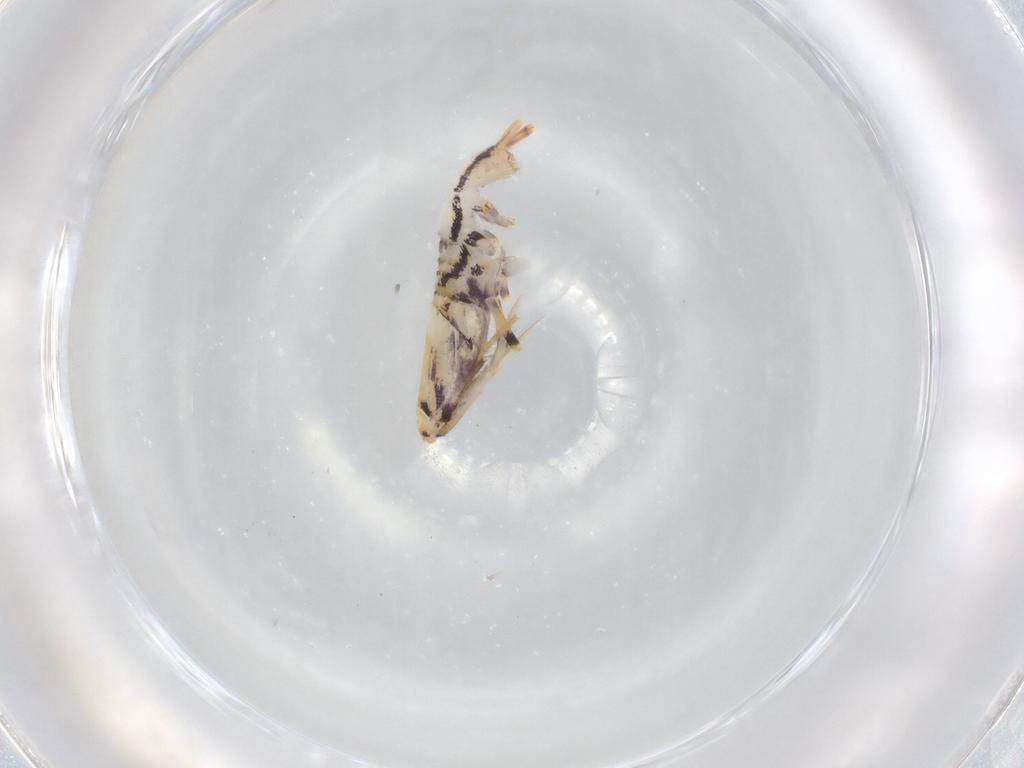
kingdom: Animalia
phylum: Arthropoda
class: Collembola
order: Entomobryomorpha
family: Entomobryidae
